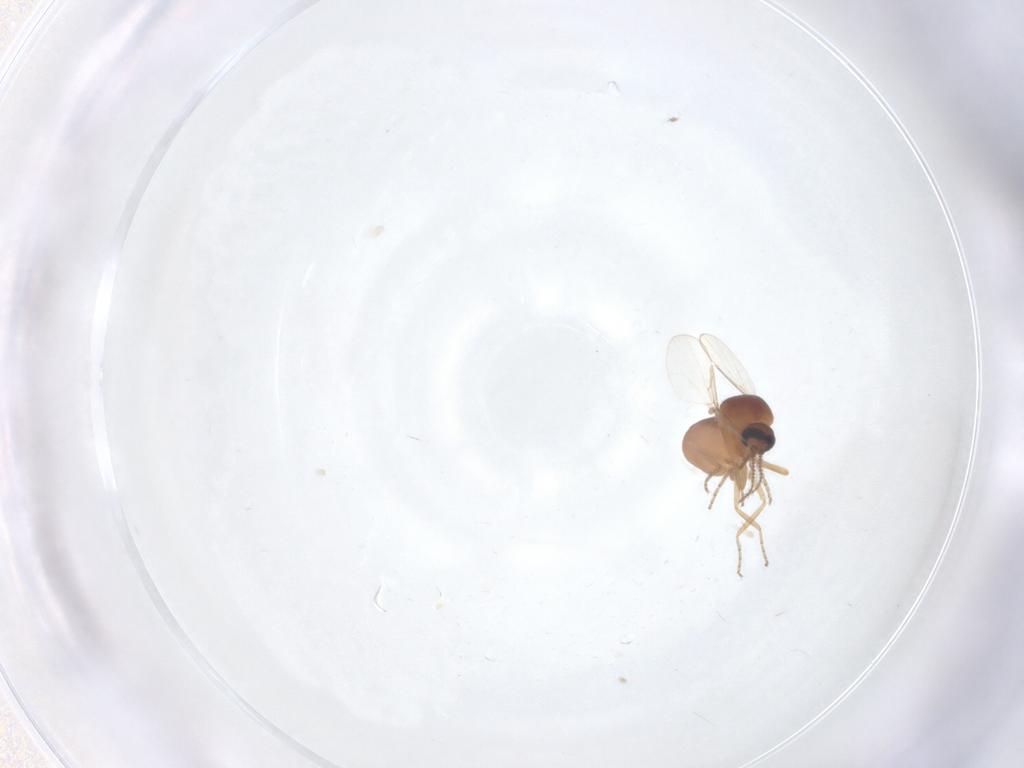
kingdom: Animalia
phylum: Arthropoda
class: Insecta
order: Diptera
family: Ceratopogonidae
